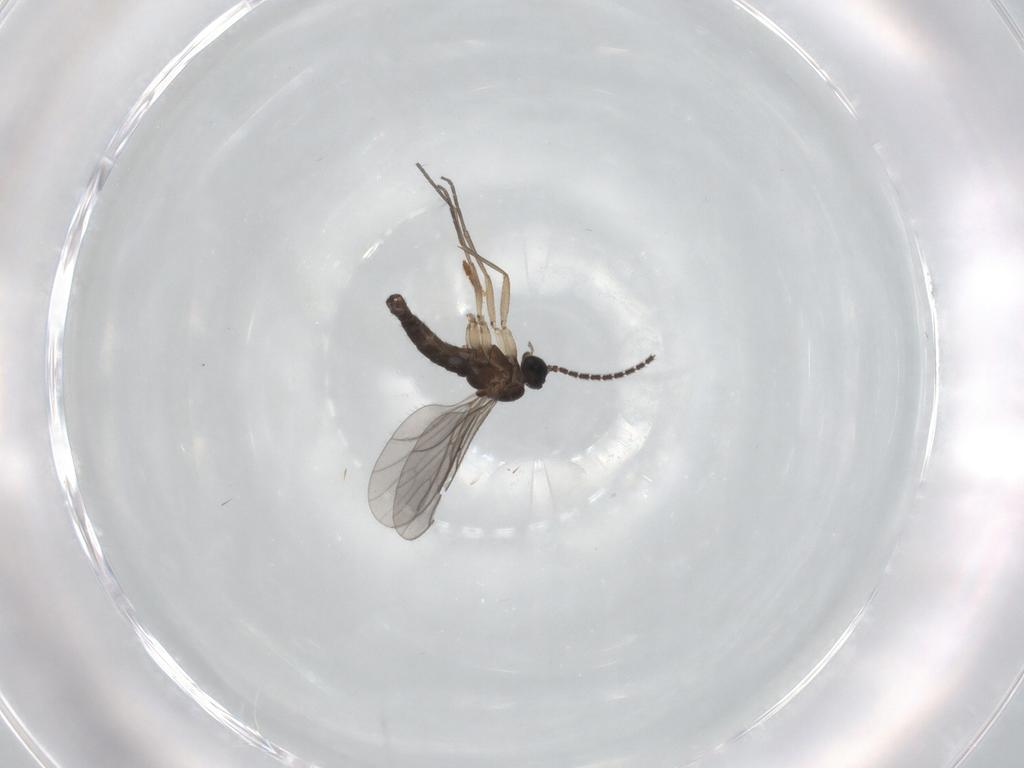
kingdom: Animalia
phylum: Arthropoda
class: Insecta
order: Diptera
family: Sciaridae
